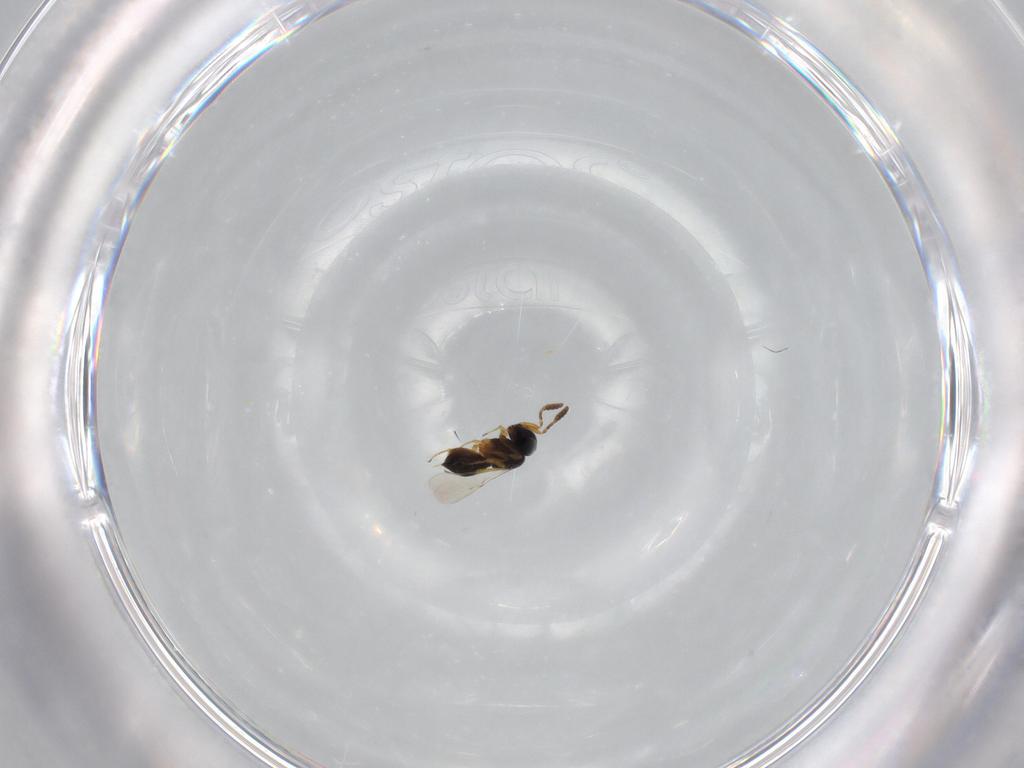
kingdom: Animalia
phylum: Arthropoda
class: Insecta
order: Hymenoptera
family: Scelionidae
